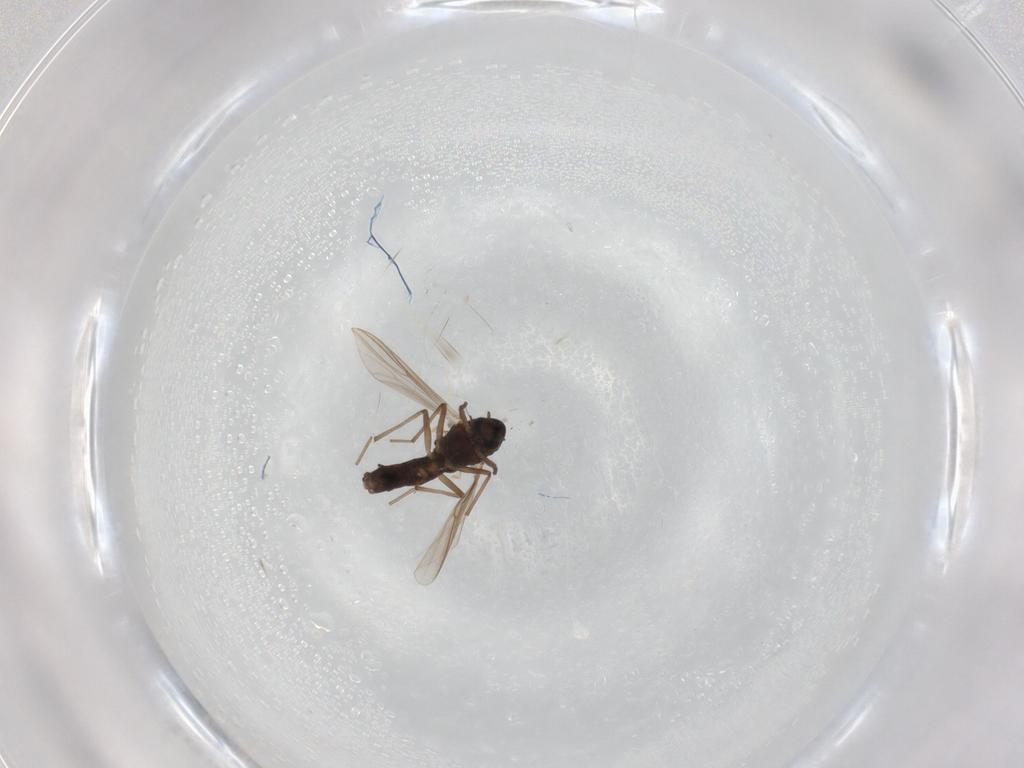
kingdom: Animalia
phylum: Arthropoda
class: Insecta
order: Diptera
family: Chironomidae
